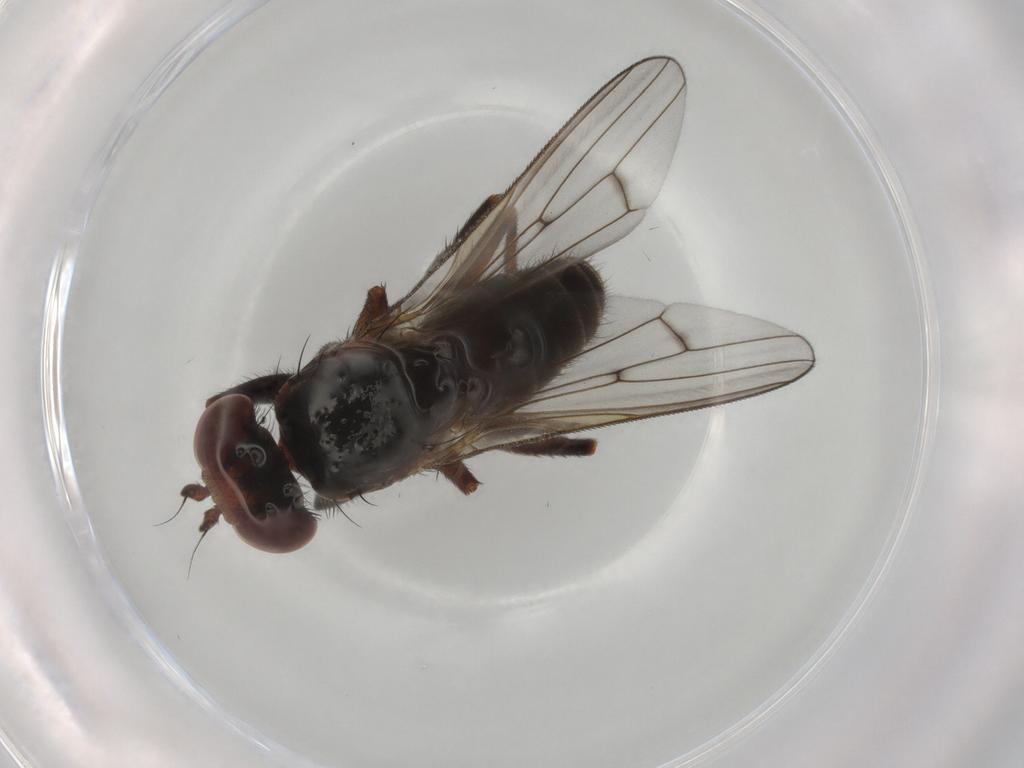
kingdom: Animalia
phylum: Arthropoda
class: Insecta
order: Diptera
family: Sciomyzidae
